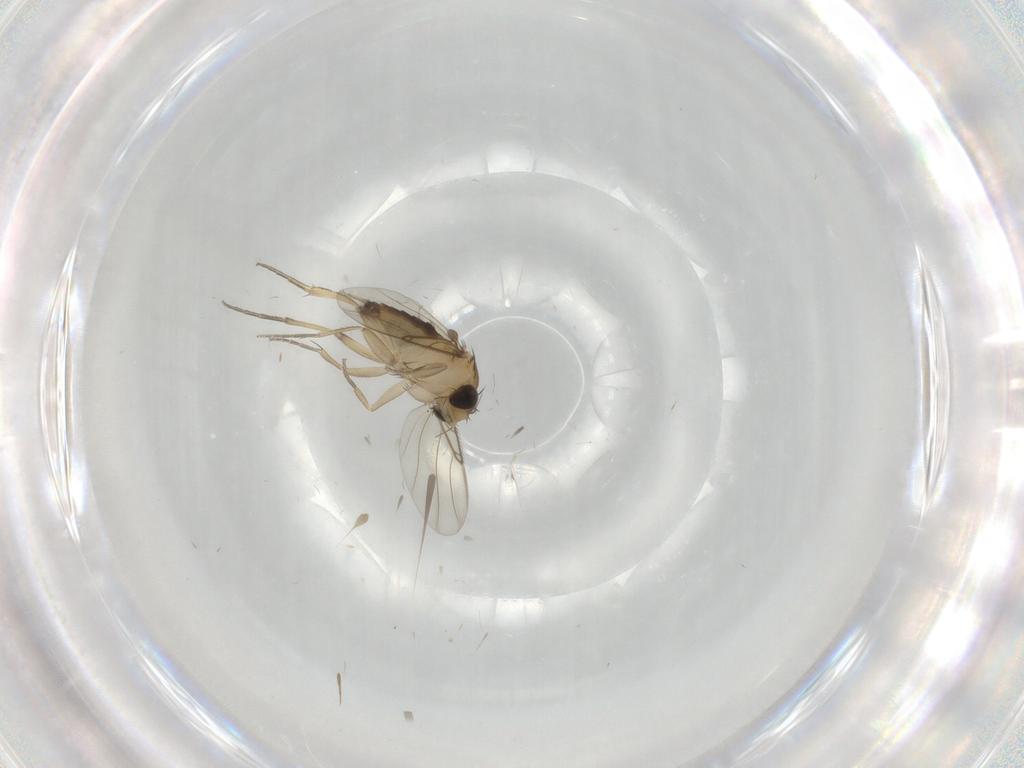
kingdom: Animalia
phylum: Arthropoda
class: Insecta
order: Diptera
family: Phoridae
